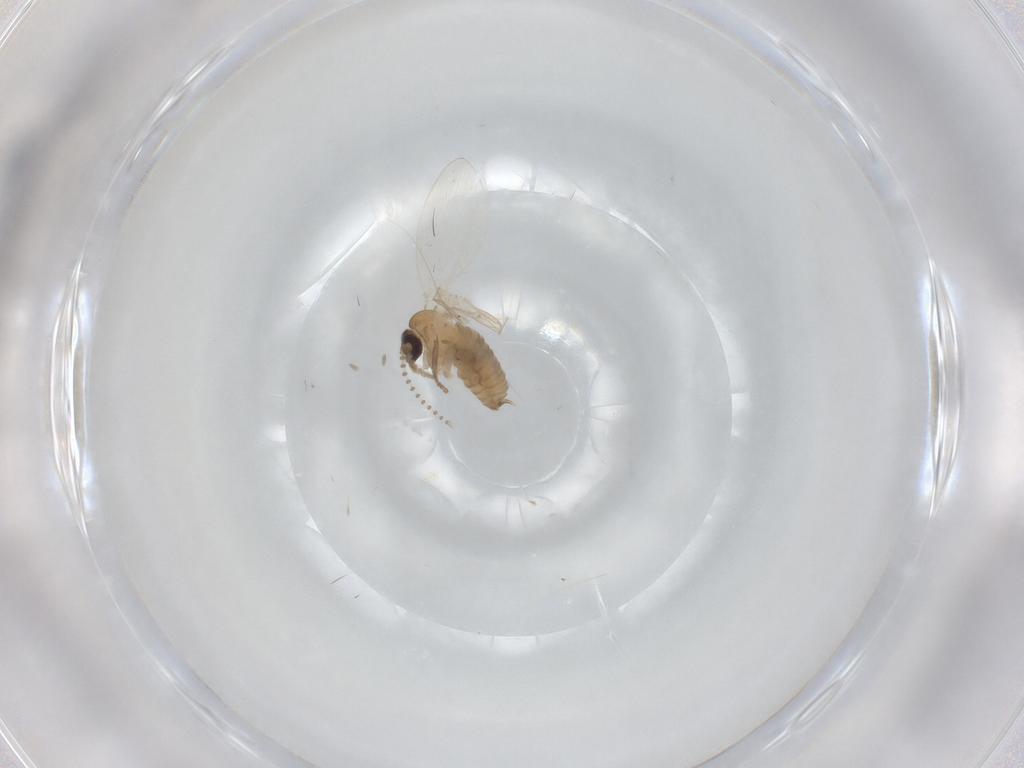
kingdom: Animalia
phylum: Arthropoda
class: Insecta
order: Diptera
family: Psychodidae
